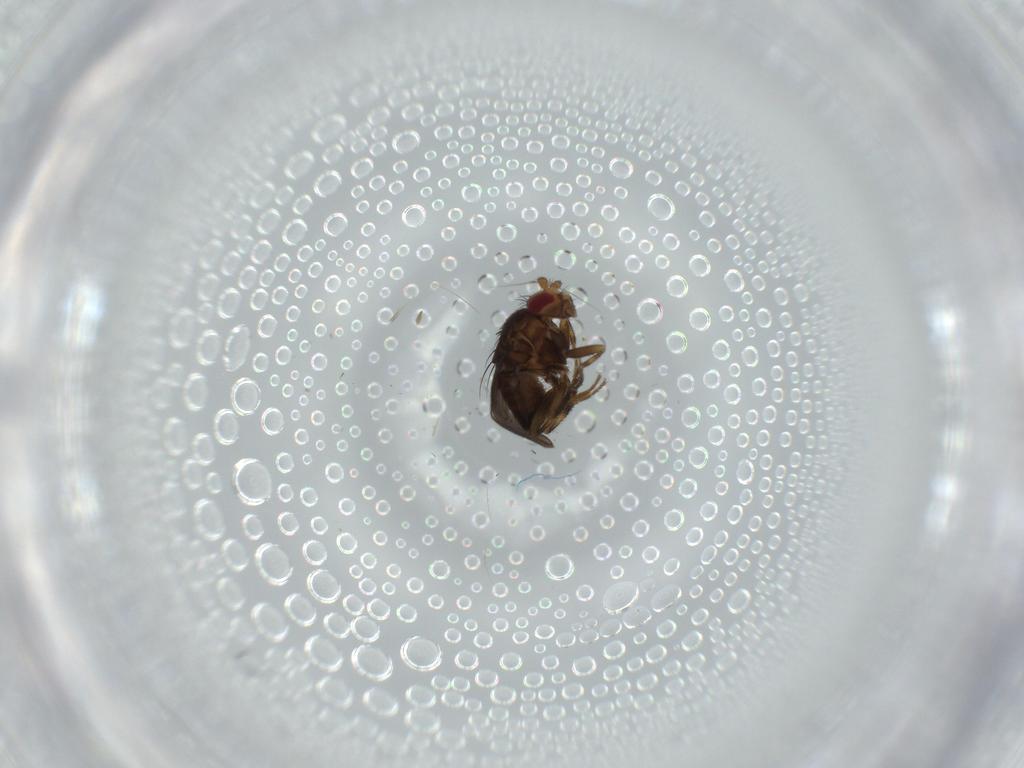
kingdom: Animalia
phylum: Arthropoda
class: Insecta
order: Diptera
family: Sphaeroceridae
